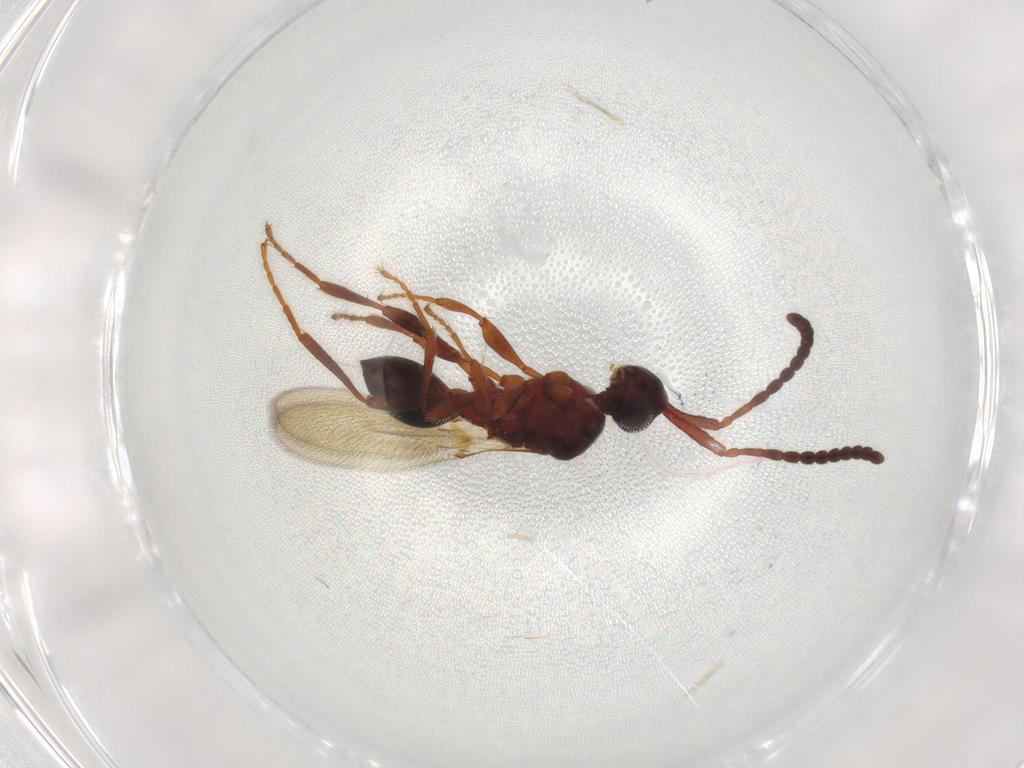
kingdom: Animalia
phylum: Arthropoda
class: Insecta
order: Hymenoptera
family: Diapriidae
